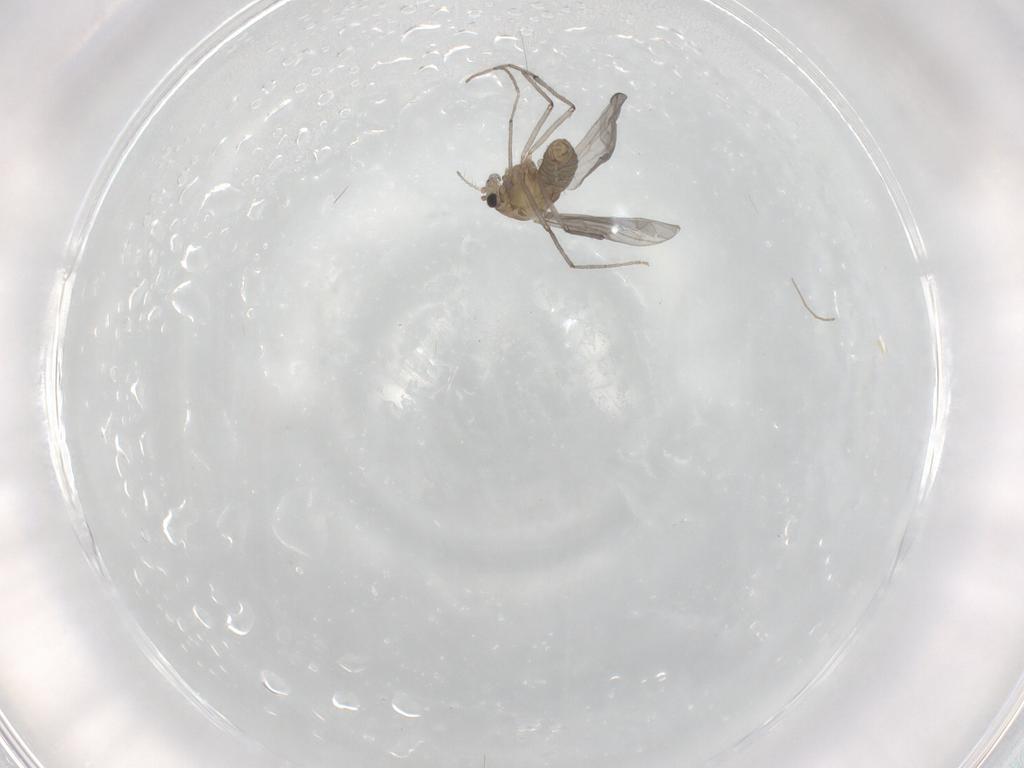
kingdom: Animalia
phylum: Arthropoda
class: Insecta
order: Diptera
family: Chironomidae
